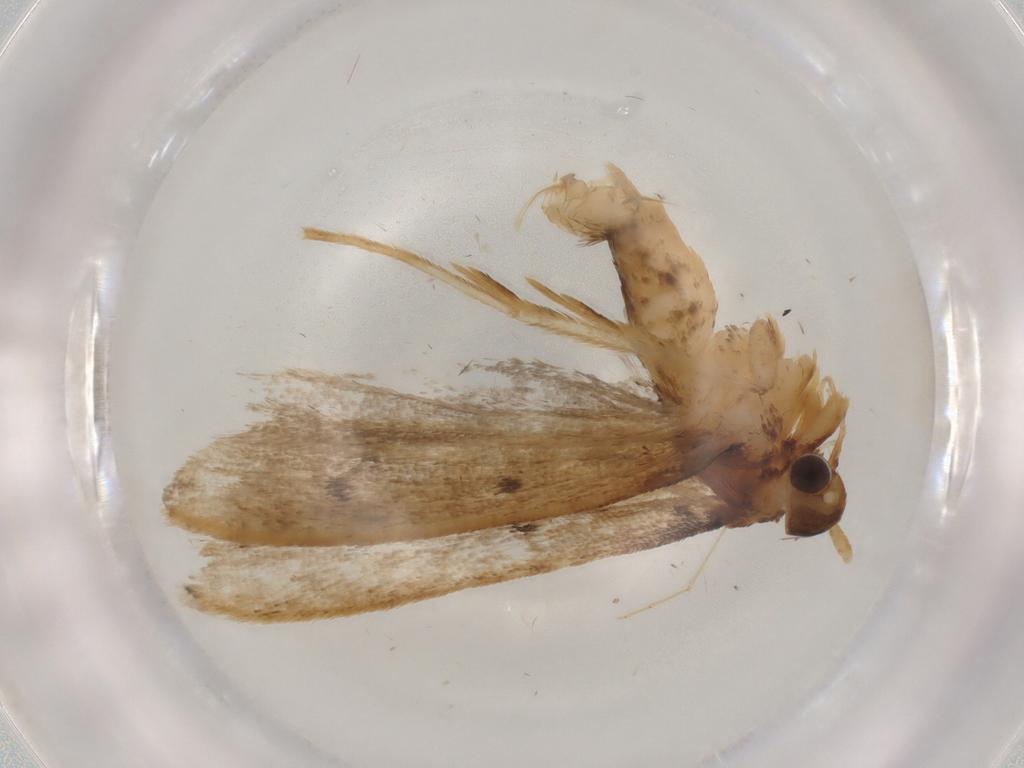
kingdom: Animalia
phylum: Arthropoda
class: Insecta
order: Lepidoptera
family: Lecithoceridae
